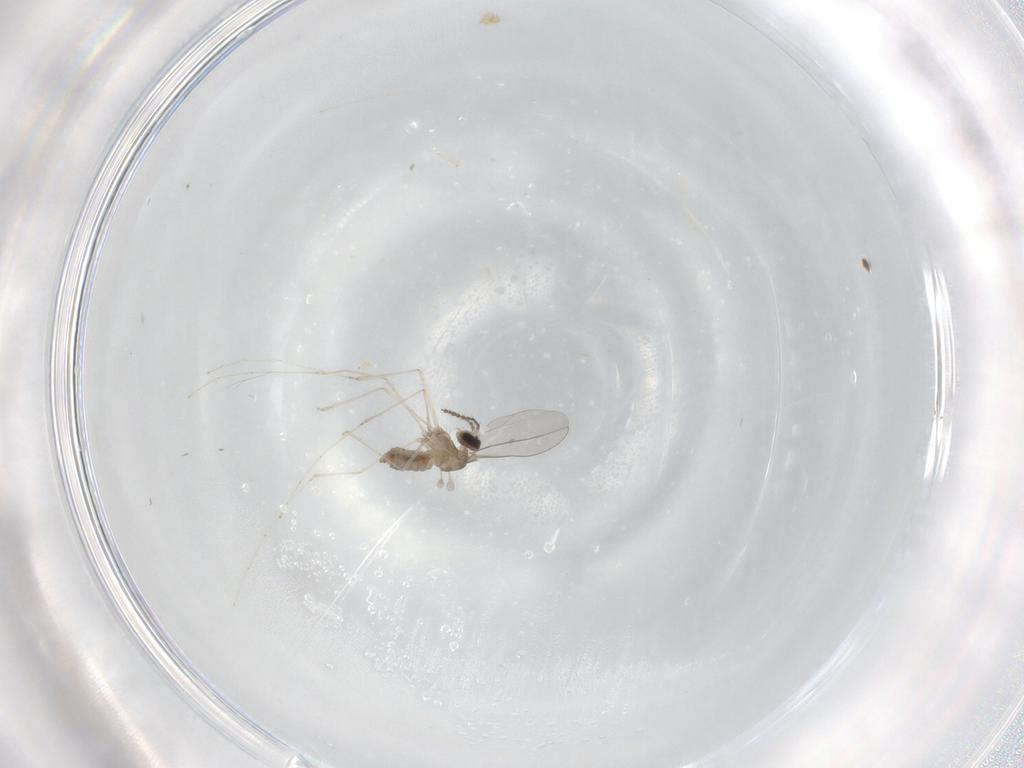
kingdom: Animalia
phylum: Arthropoda
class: Insecta
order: Diptera
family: Cecidomyiidae
